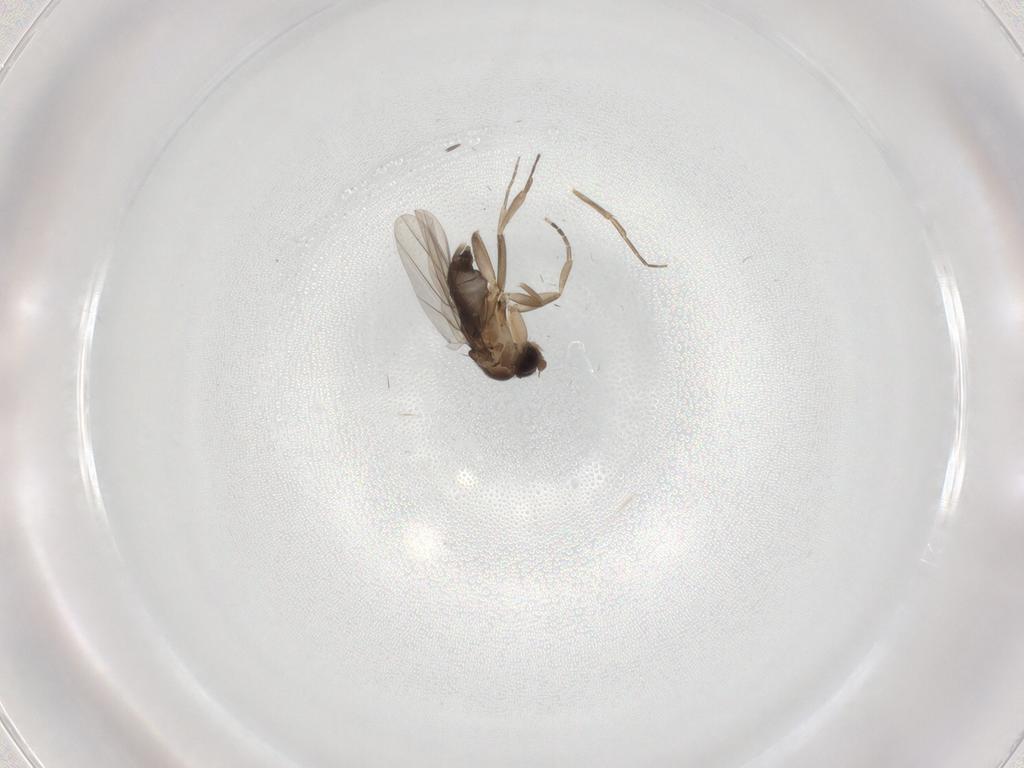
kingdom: Animalia
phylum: Arthropoda
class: Insecta
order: Diptera
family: Phoridae
